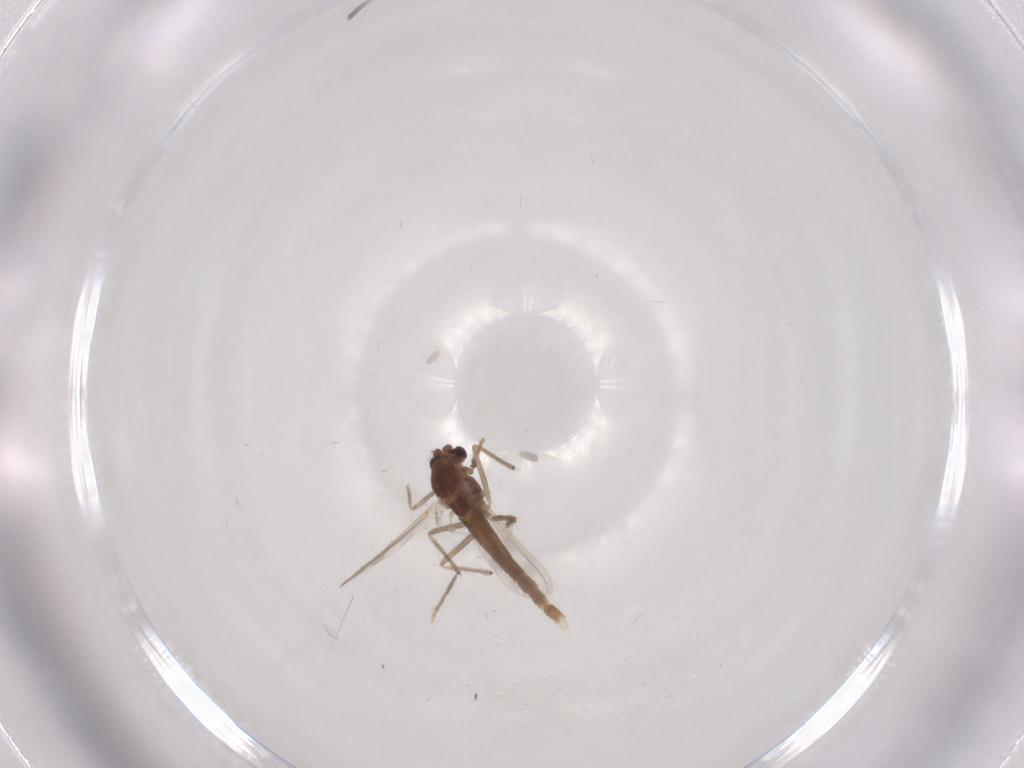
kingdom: Animalia
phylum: Arthropoda
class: Insecta
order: Diptera
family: Chironomidae
